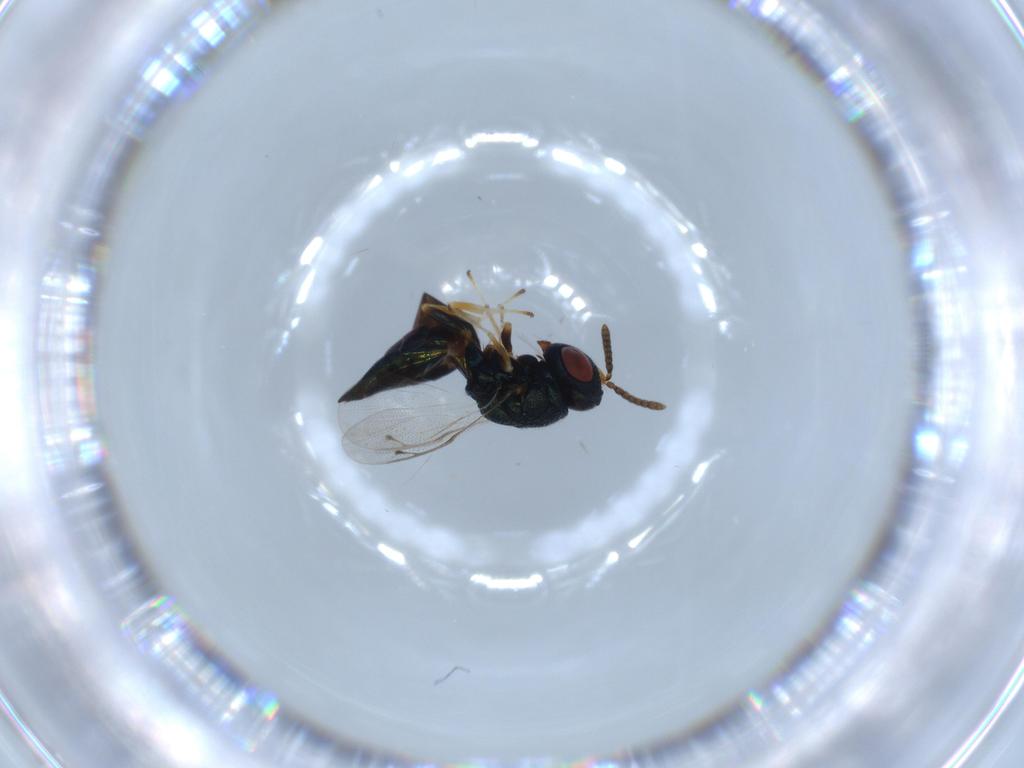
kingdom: Animalia
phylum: Arthropoda
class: Insecta
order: Hymenoptera
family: Pteromalidae
